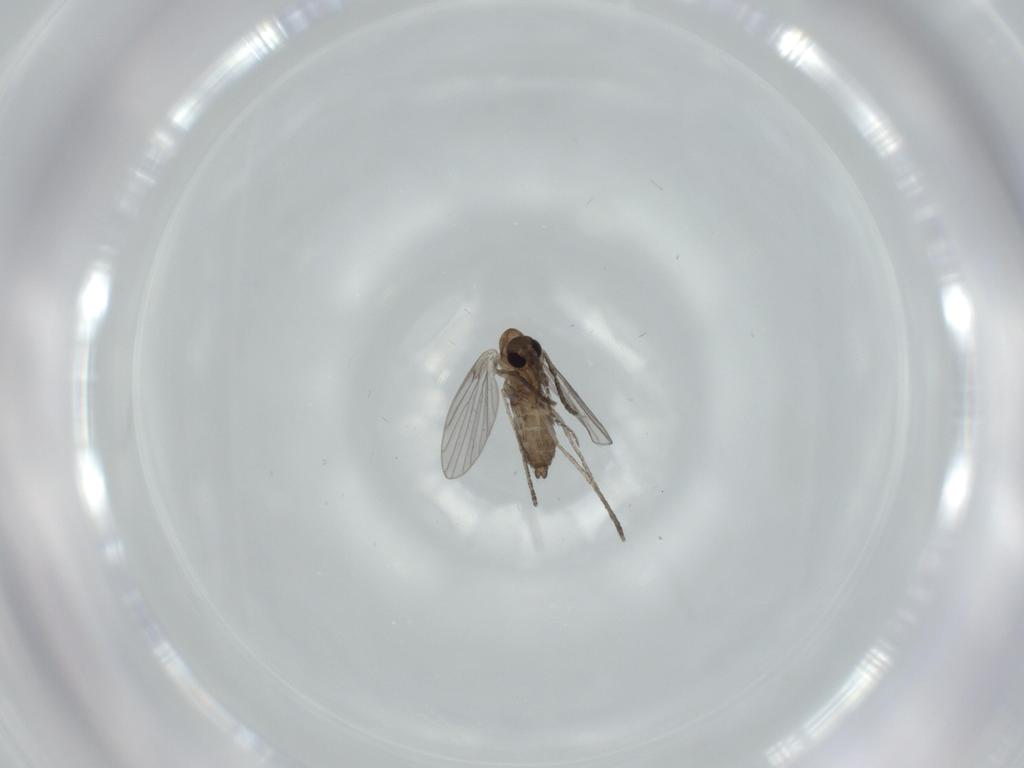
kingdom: Animalia
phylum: Arthropoda
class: Insecta
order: Diptera
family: Psychodidae
